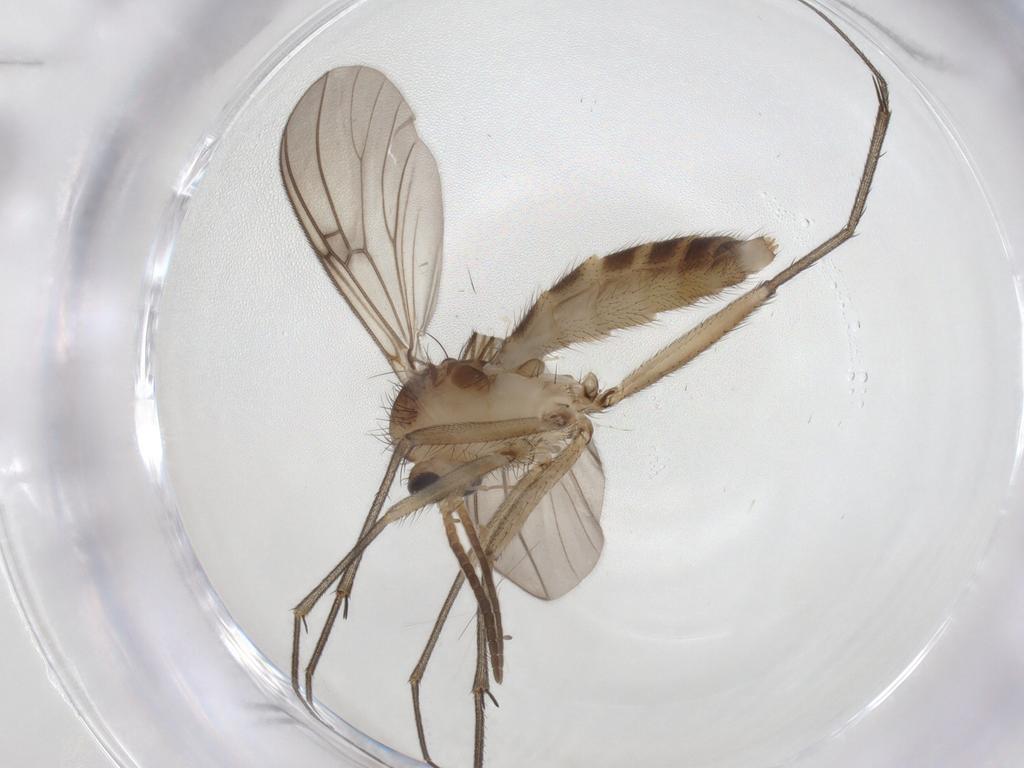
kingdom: Animalia
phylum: Arthropoda
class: Insecta
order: Diptera
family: Mycetophilidae
